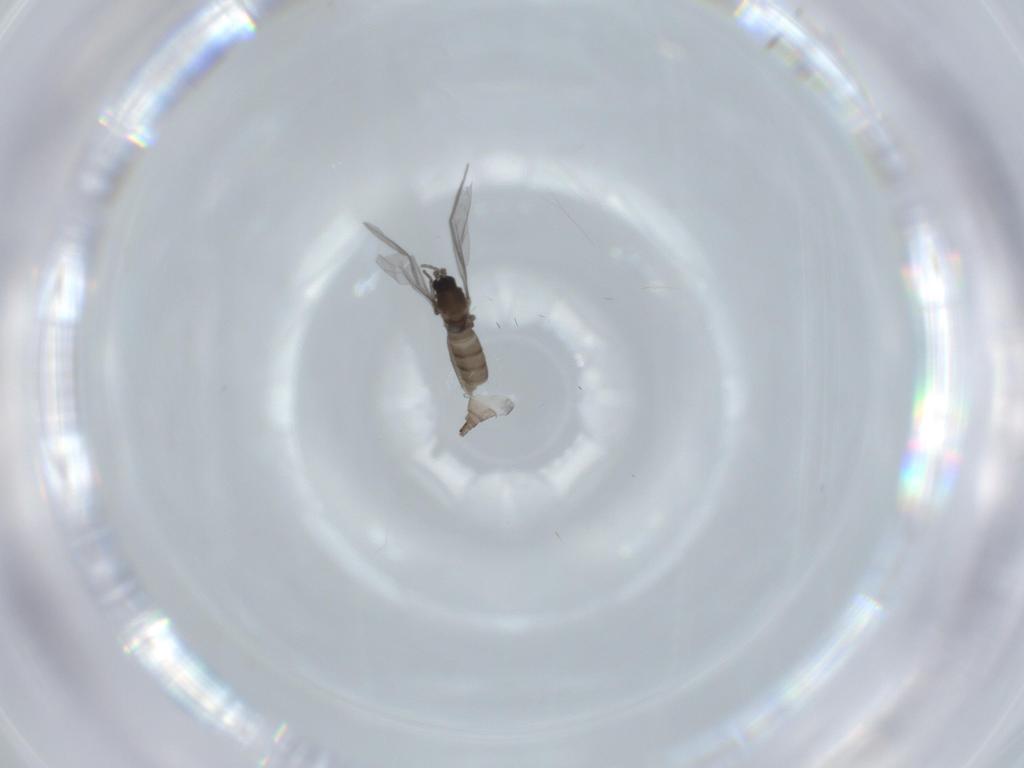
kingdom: Animalia
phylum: Arthropoda
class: Insecta
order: Diptera
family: Sciaridae
